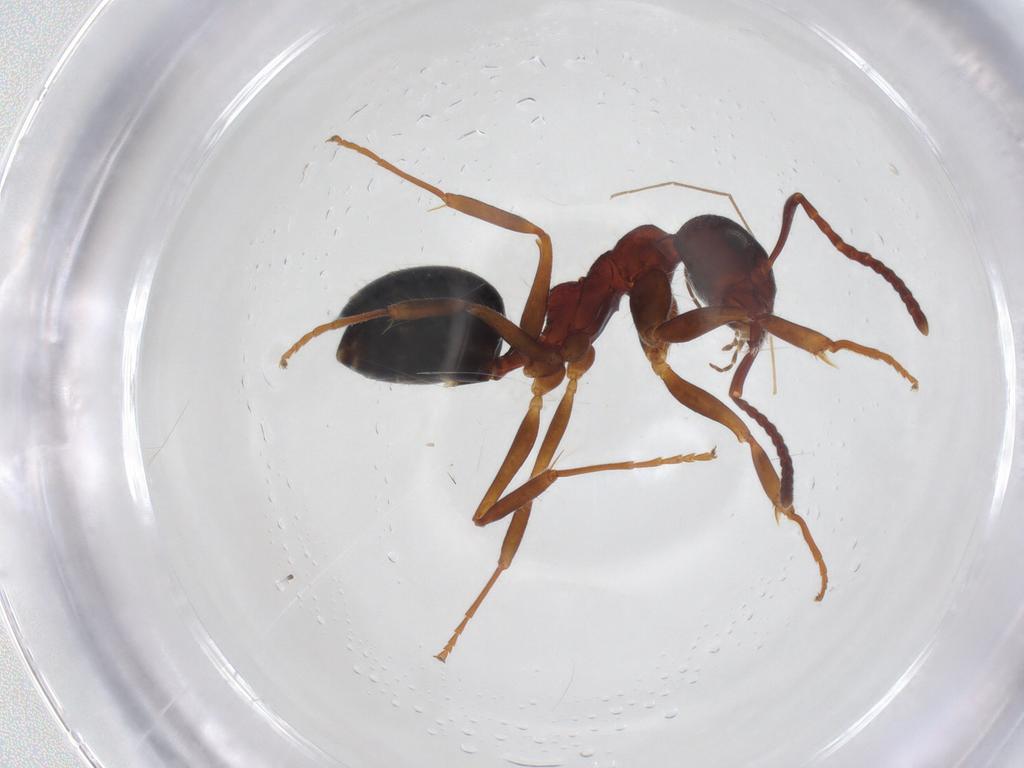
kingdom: Animalia
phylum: Arthropoda
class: Insecta
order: Hymenoptera
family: Formicidae
